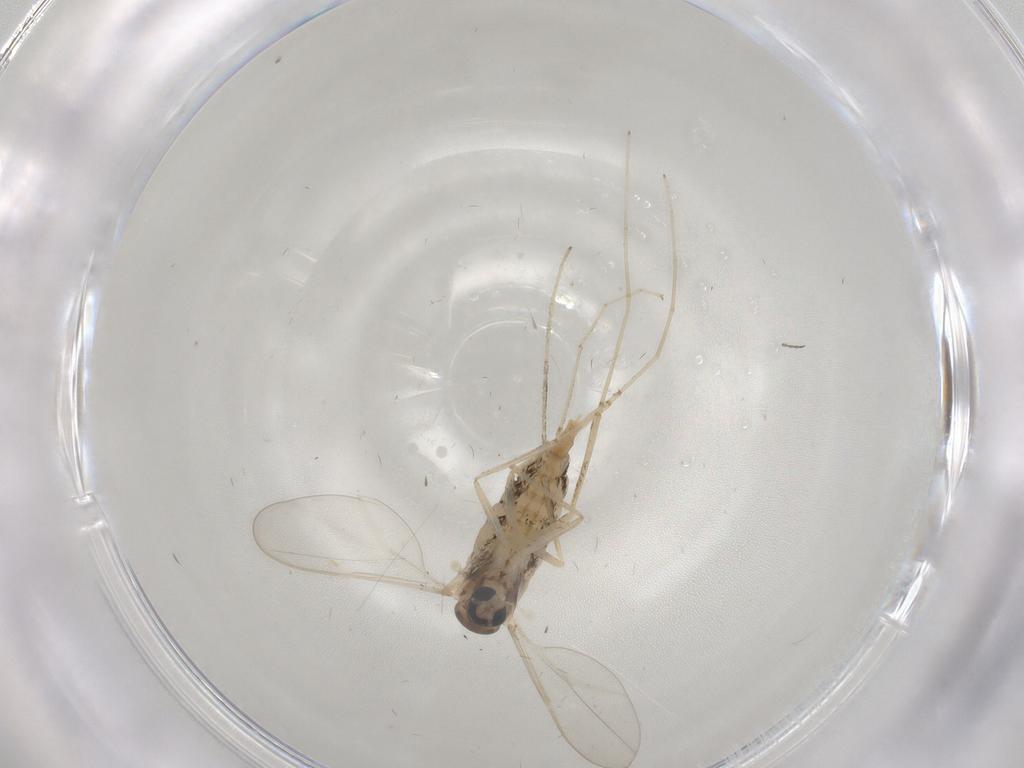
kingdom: Animalia
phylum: Arthropoda
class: Insecta
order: Diptera
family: Cecidomyiidae
